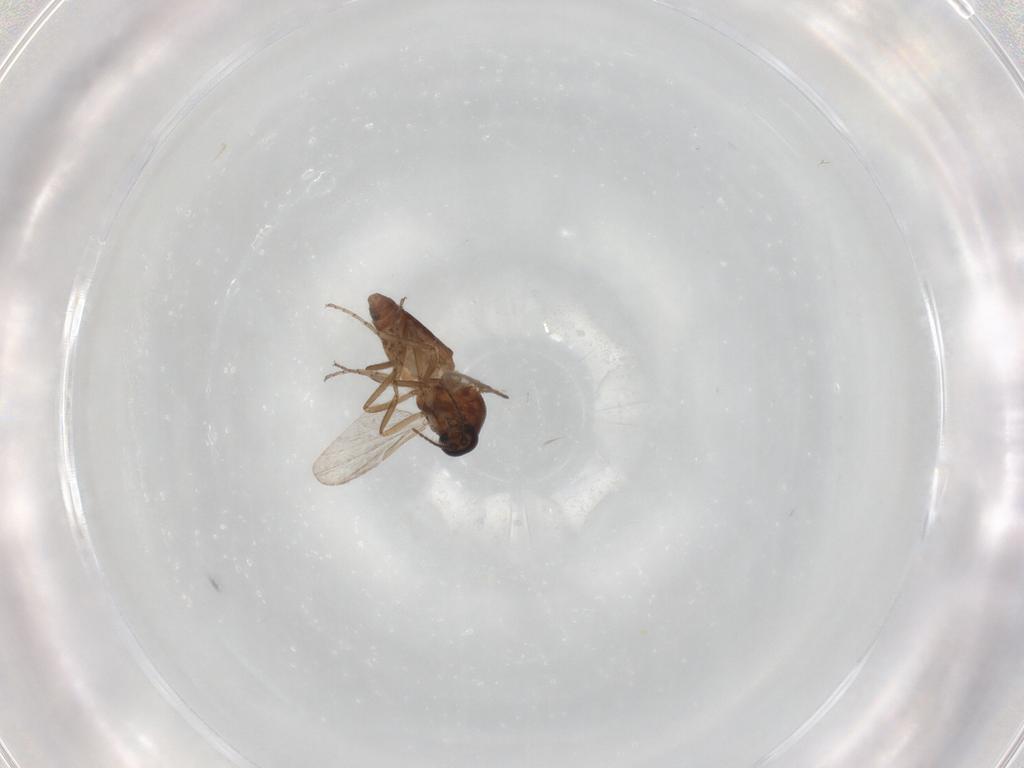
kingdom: Animalia
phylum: Arthropoda
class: Insecta
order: Diptera
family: Ceratopogonidae
